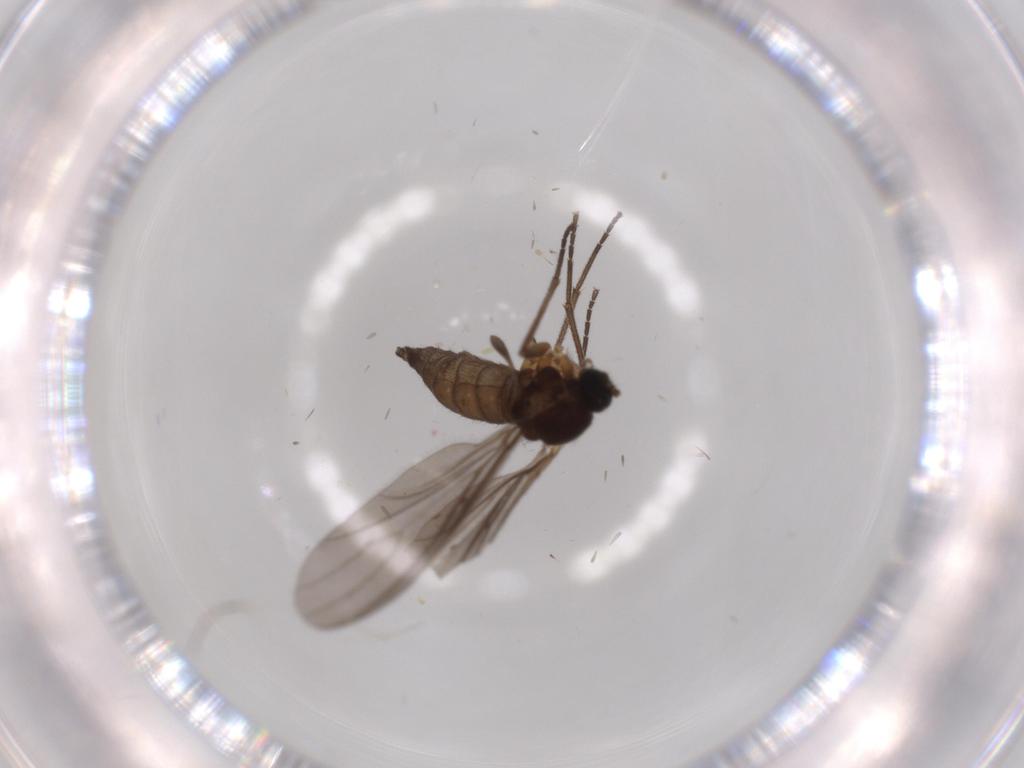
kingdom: Animalia
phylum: Arthropoda
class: Insecta
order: Diptera
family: Sciaridae
